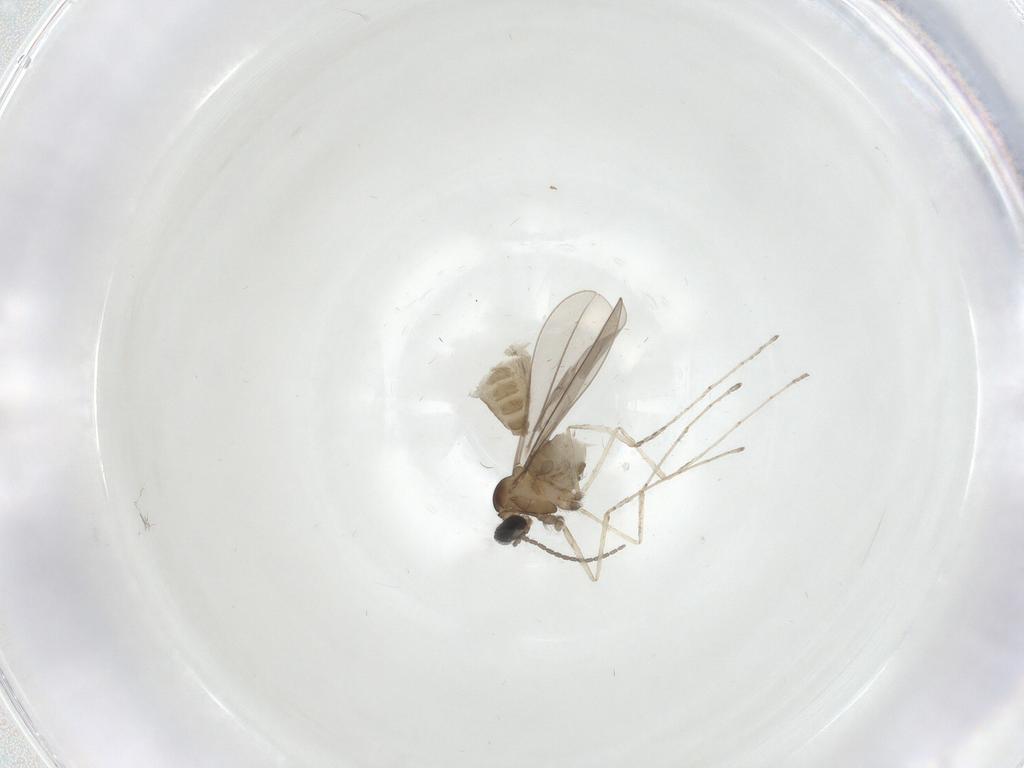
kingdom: Animalia
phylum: Arthropoda
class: Insecta
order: Diptera
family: Cecidomyiidae
